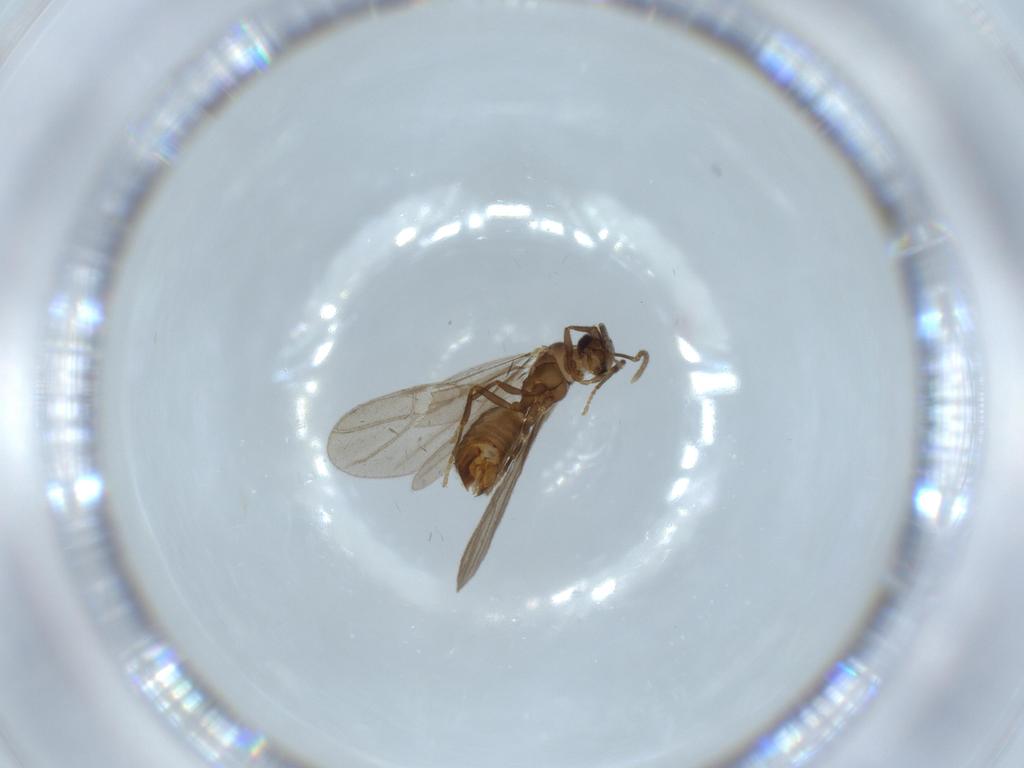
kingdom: Animalia
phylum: Arthropoda
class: Insecta
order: Hymenoptera
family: Formicidae
